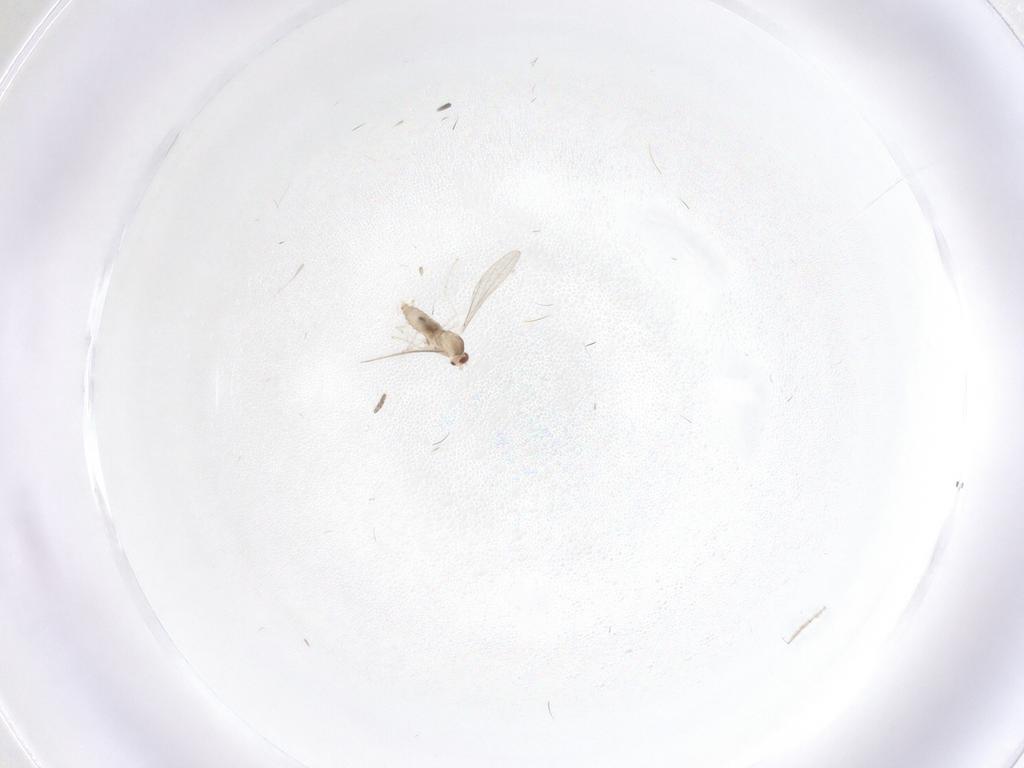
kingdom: Animalia
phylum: Arthropoda
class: Insecta
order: Diptera
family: Cecidomyiidae
